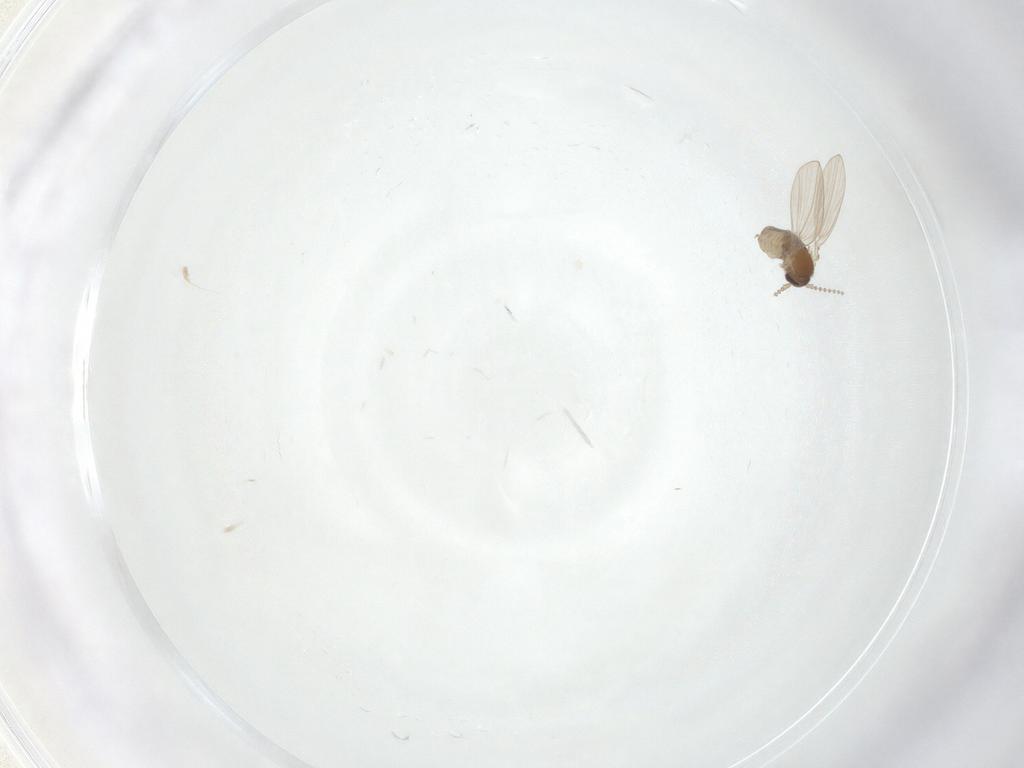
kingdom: Animalia
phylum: Arthropoda
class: Insecta
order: Diptera
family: Psychodidae
